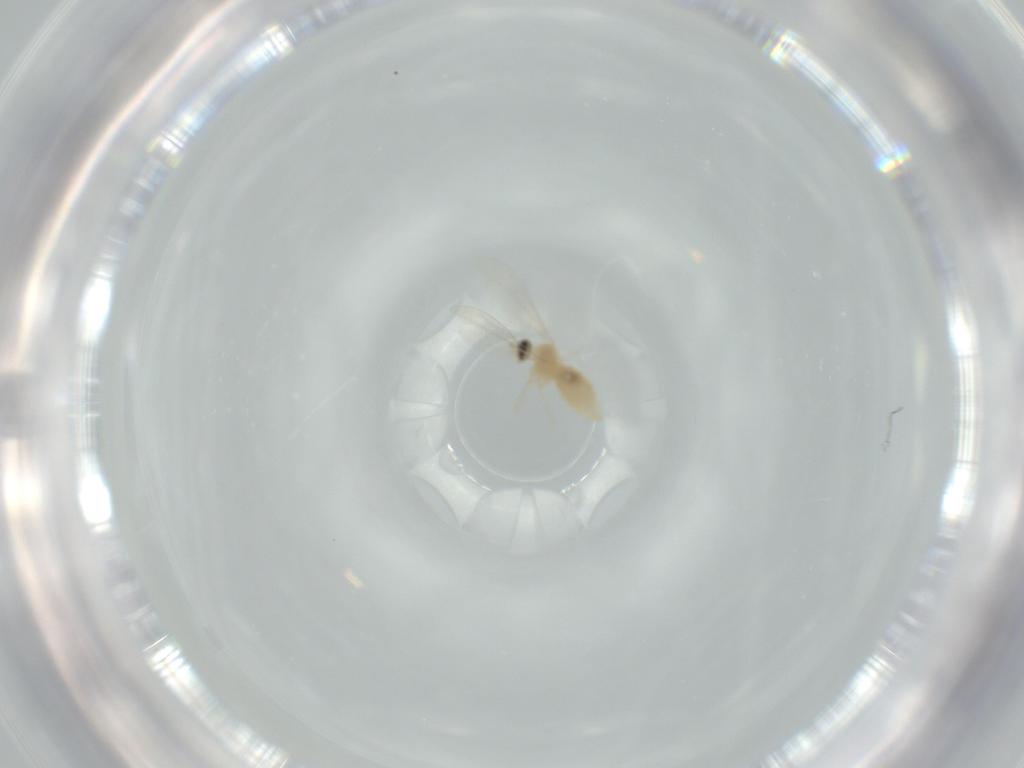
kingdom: Animalia
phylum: Arthropoda
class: Insecta
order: Diptera
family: Cecidomyiidae
